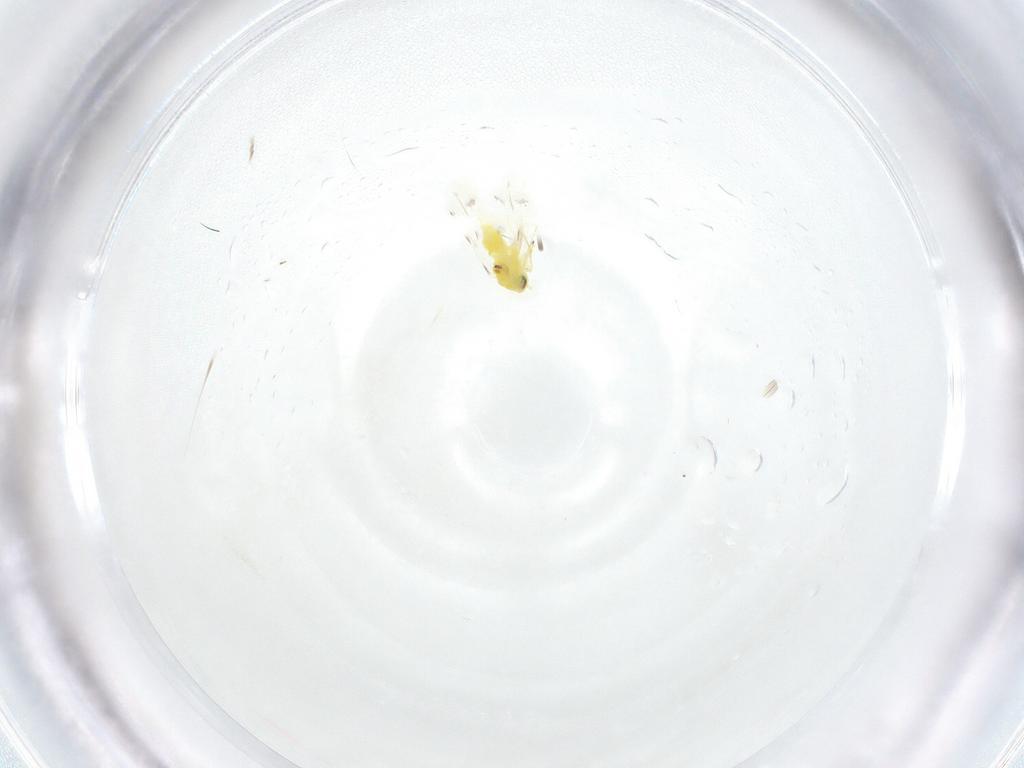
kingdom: Animalia
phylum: Arthropoda
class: Insecta
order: Hemiptera
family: Aleyrodidae
